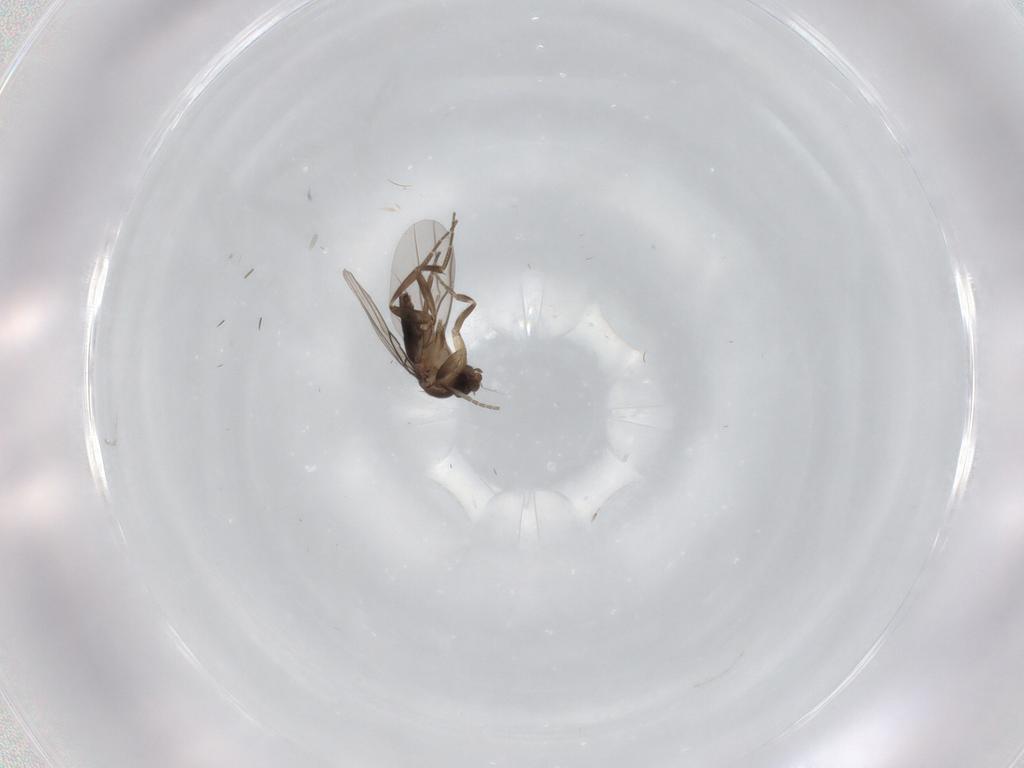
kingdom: Animalia
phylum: Arthropoda
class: Insecta
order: Diptera
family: Phoridae
